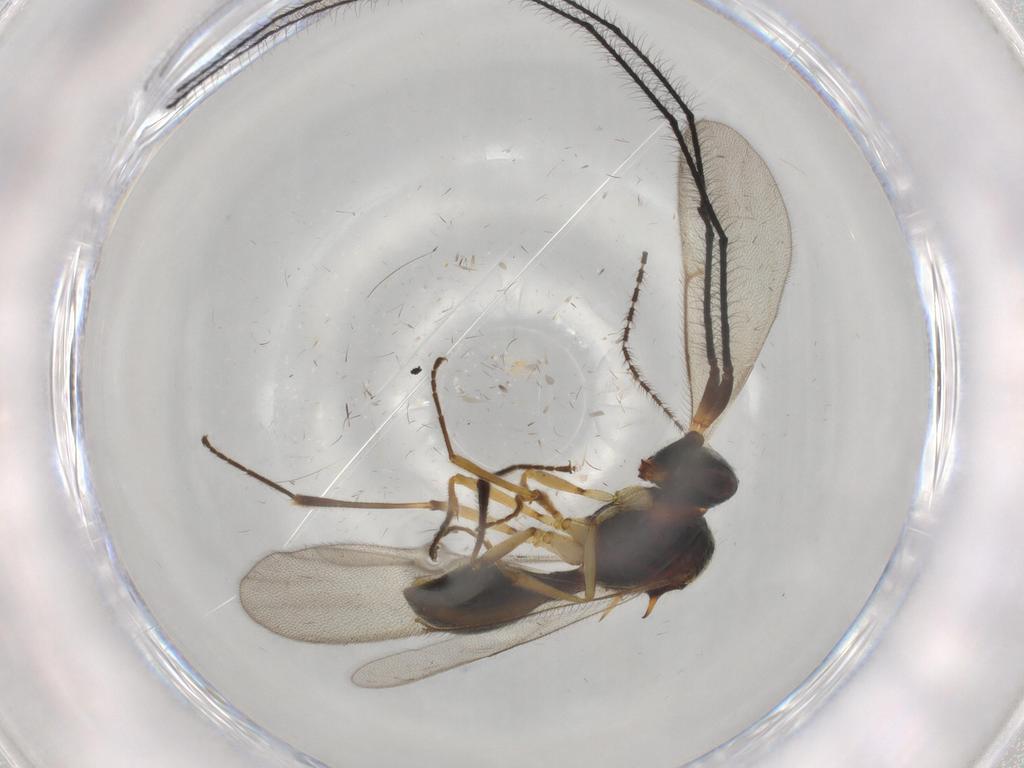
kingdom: Animalia
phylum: Arthropoda
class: Insecta
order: Hymenoptera
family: Scelionidae
